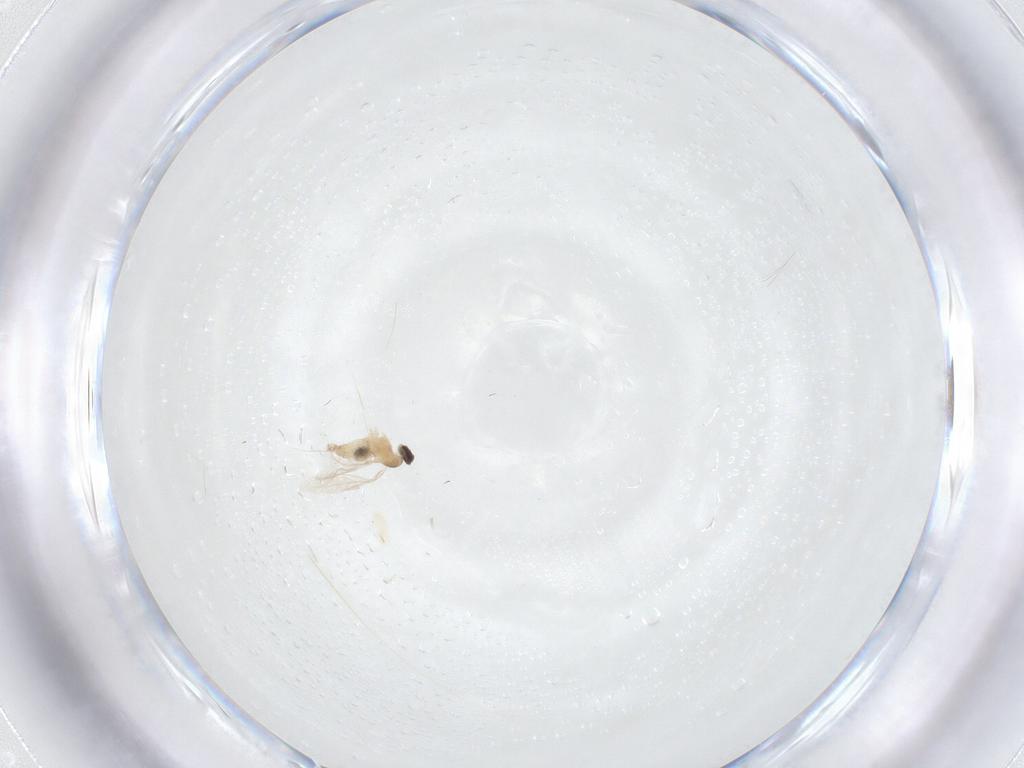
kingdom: Animalia
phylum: Arthropoda
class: Insecta
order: Diptera
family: Cecidomyiidae
